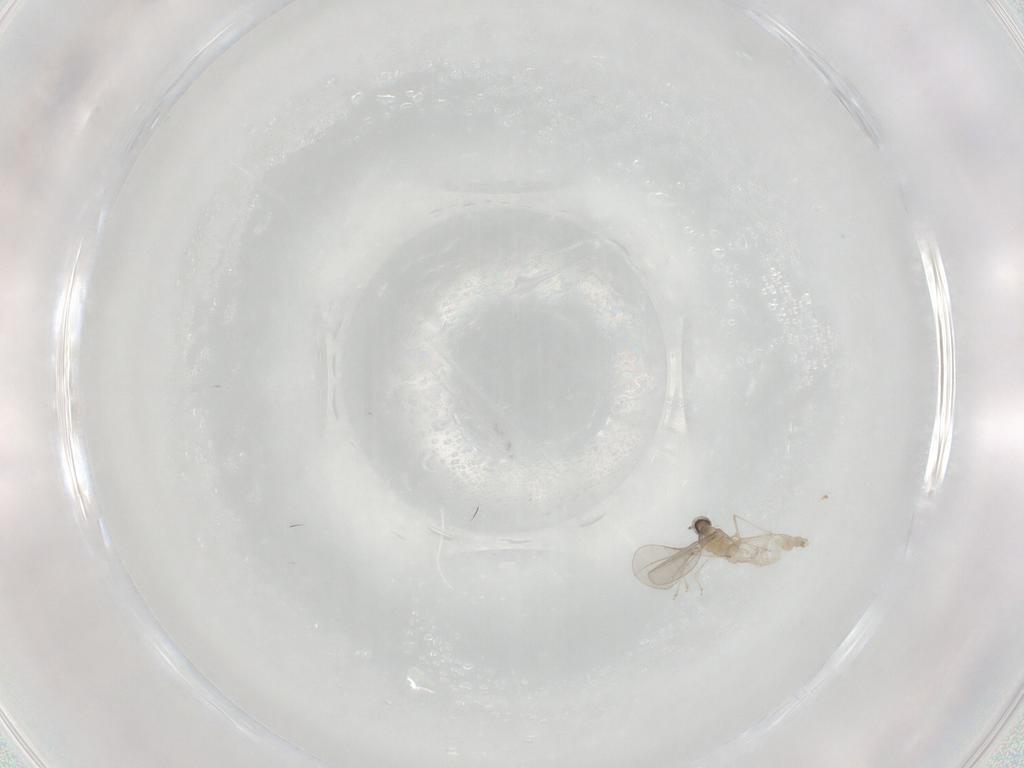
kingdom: Animalia
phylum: Arthropoda
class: Insecta
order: Diptera
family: Cecidomyiidae
